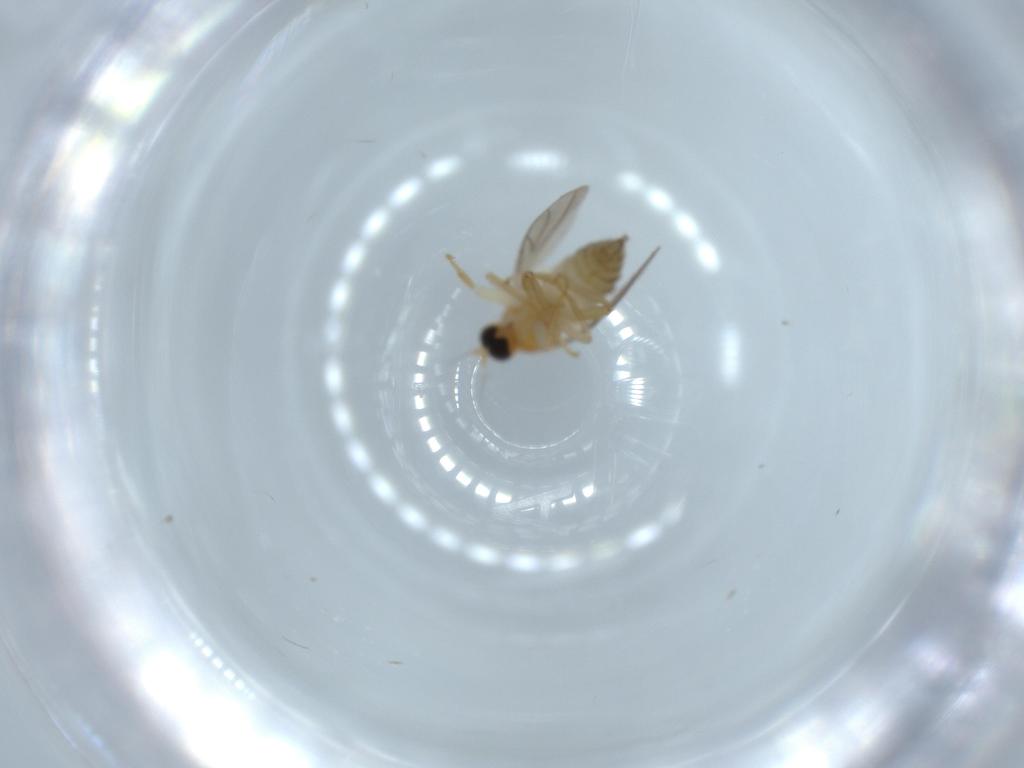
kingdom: Animalia
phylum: Arthropoda
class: Insecta
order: Diptera
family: Hybotidae
